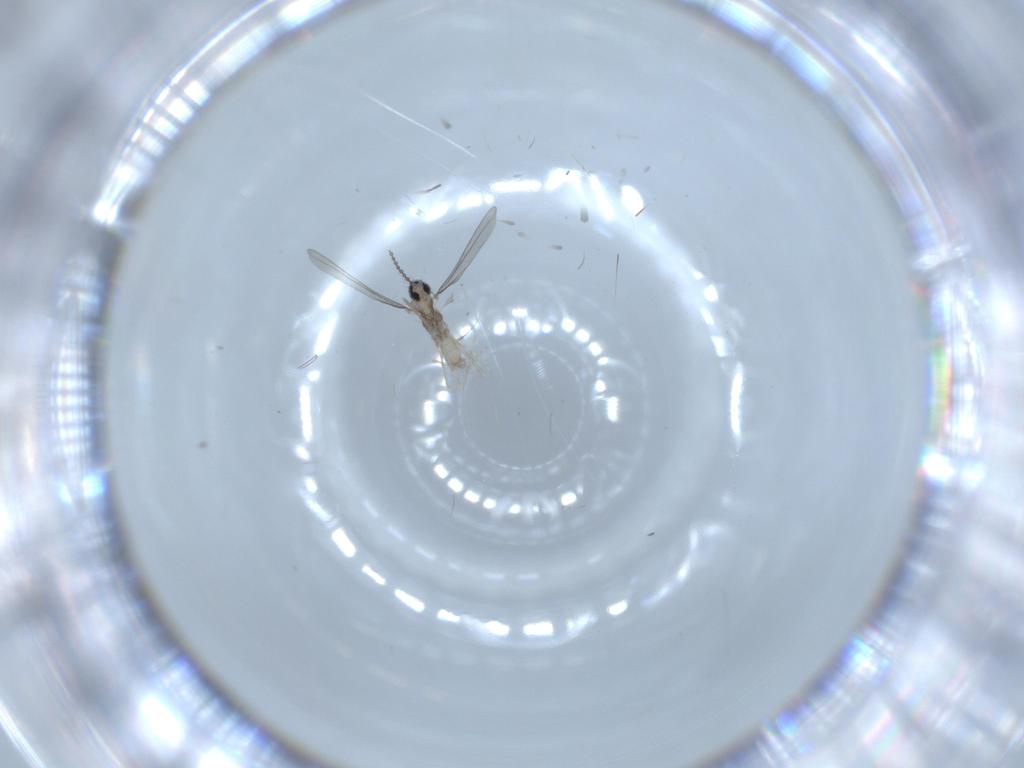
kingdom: Animalia
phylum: Arthropoda
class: Insecta
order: Diptera
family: Cecidomyiidae
